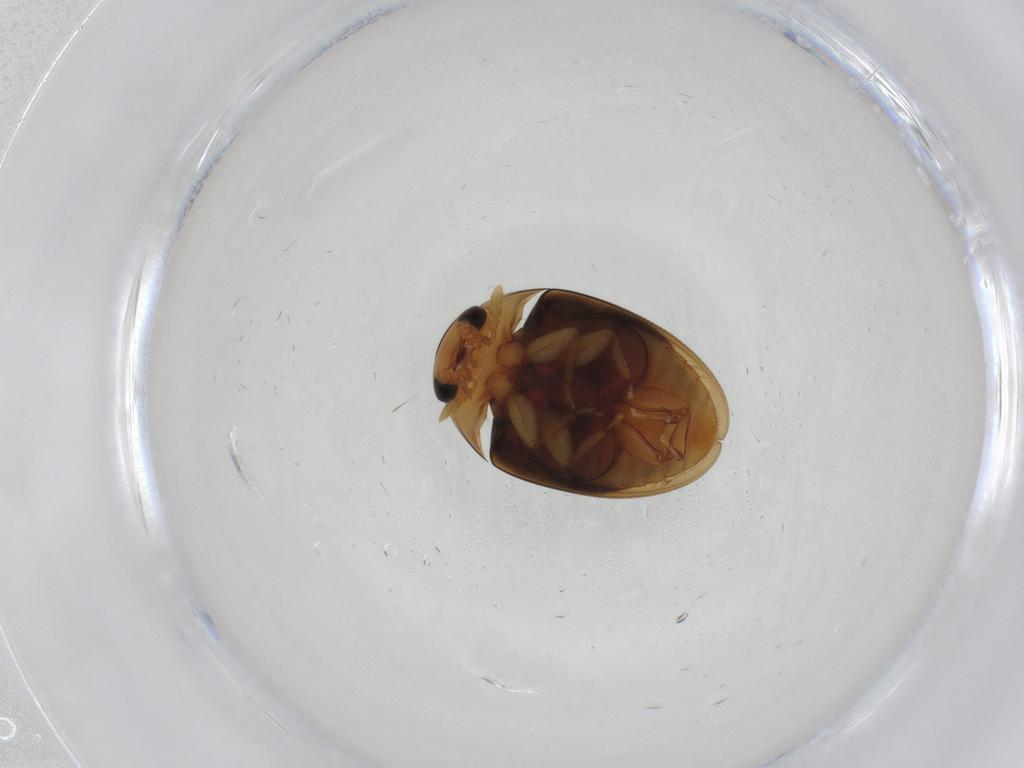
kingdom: Animalia
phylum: Arthropoda
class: Insecta
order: Coleoptera
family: Phalacridae
